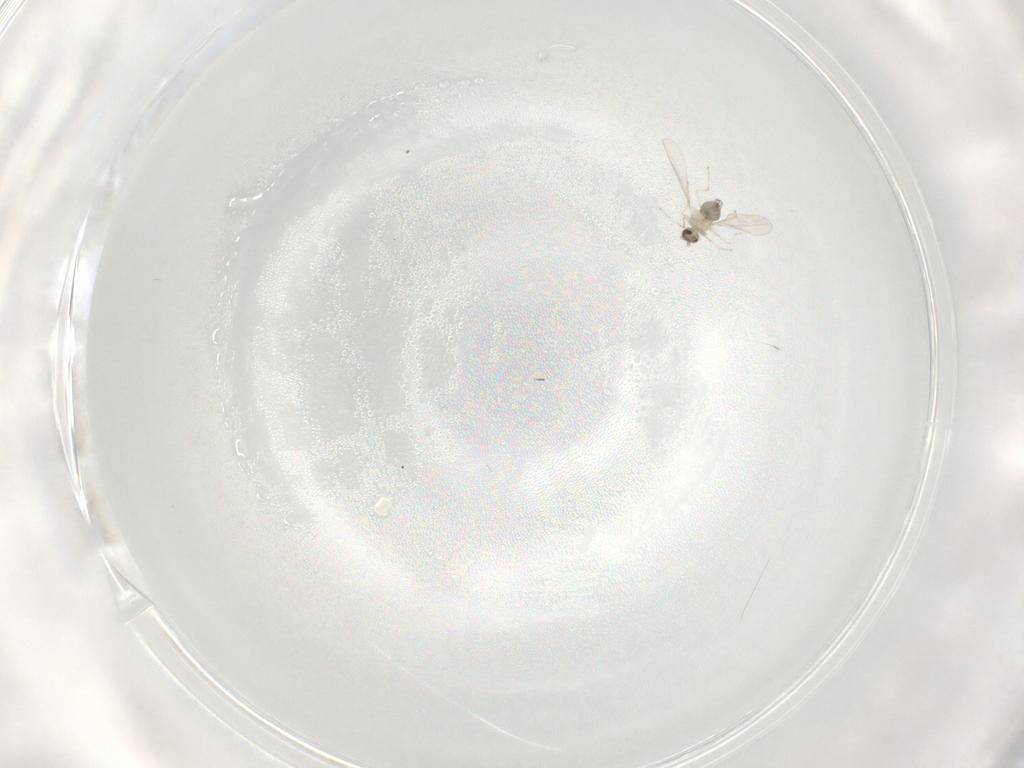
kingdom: Animalia
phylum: Arthropoda
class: Insecta
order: Diptera
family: Cecidomyiidae
